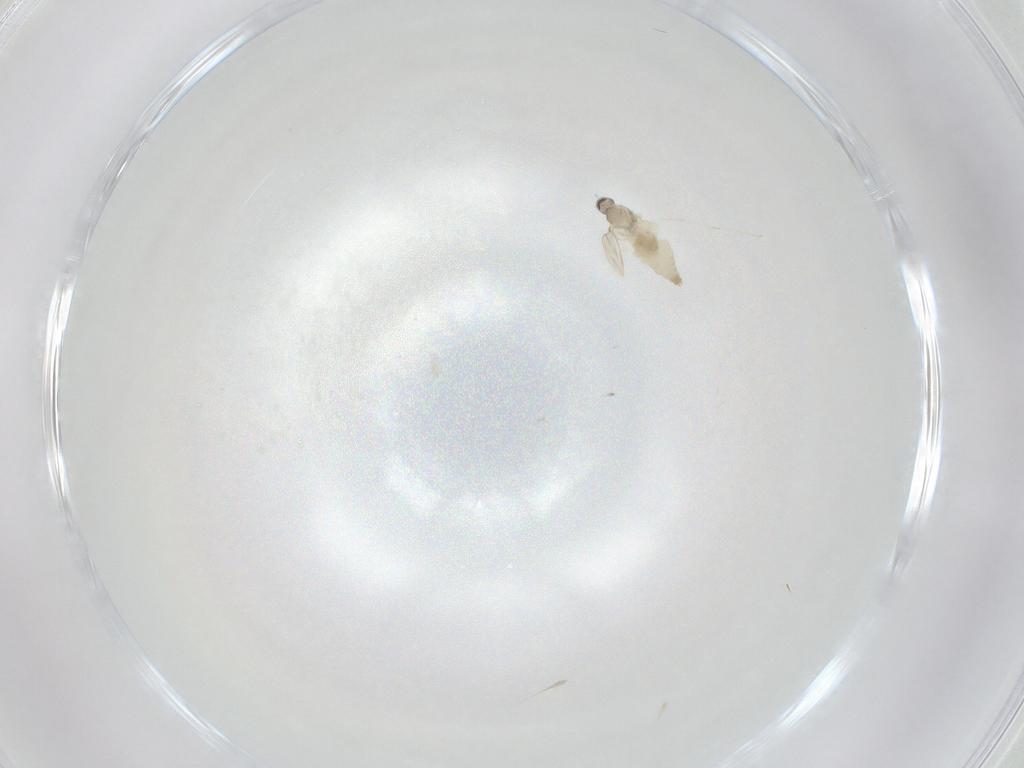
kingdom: Animalia
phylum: Arthropoda
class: Insecta
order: Diptera
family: Cecidomyiidae
